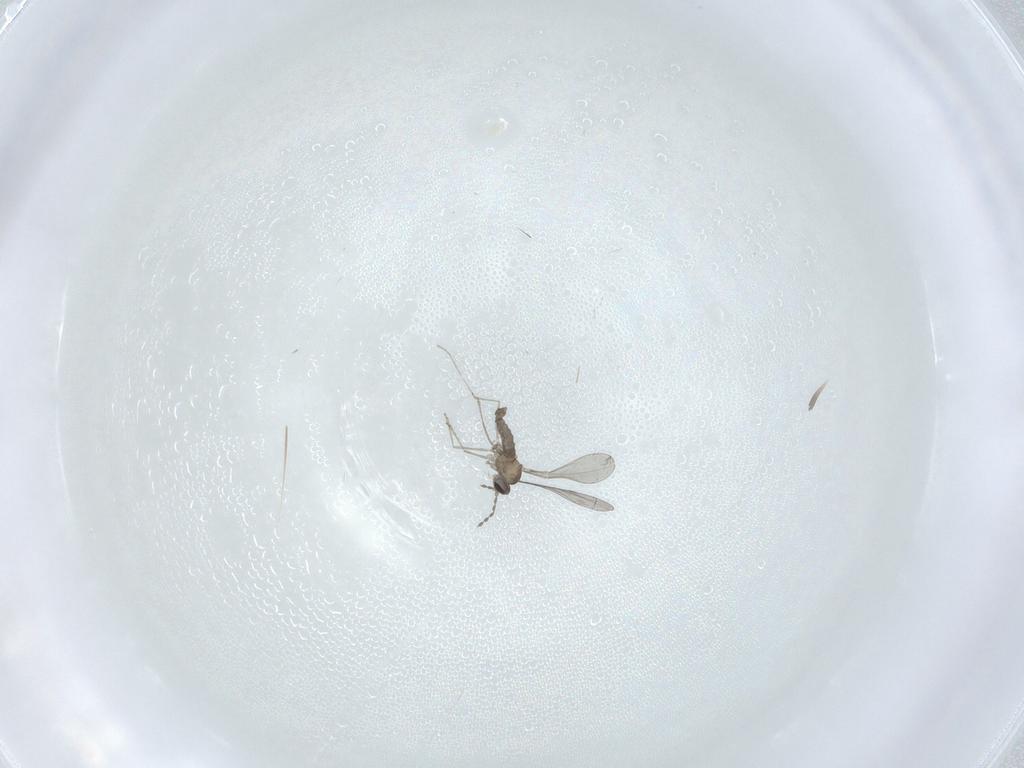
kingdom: Animalia
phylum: Arthropoda
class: Insecta
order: Diptera
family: Cecidomyiidae
